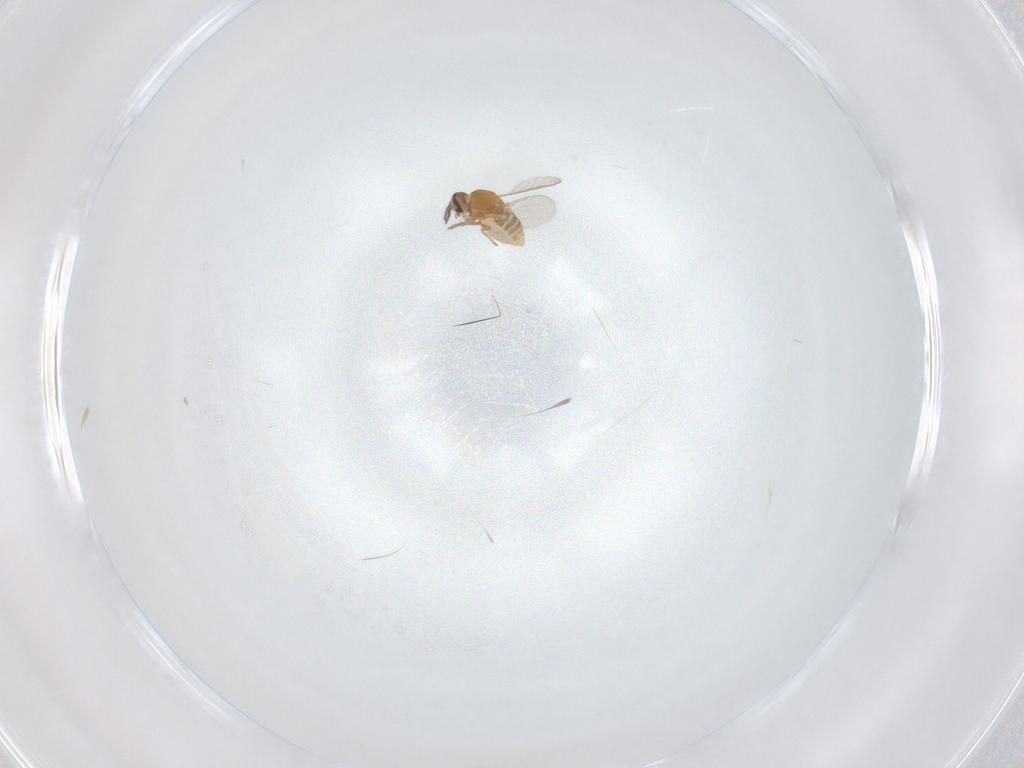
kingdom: Animalia
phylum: Arthropoda
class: Insecta
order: Diptera
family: Ceratopogonidae
